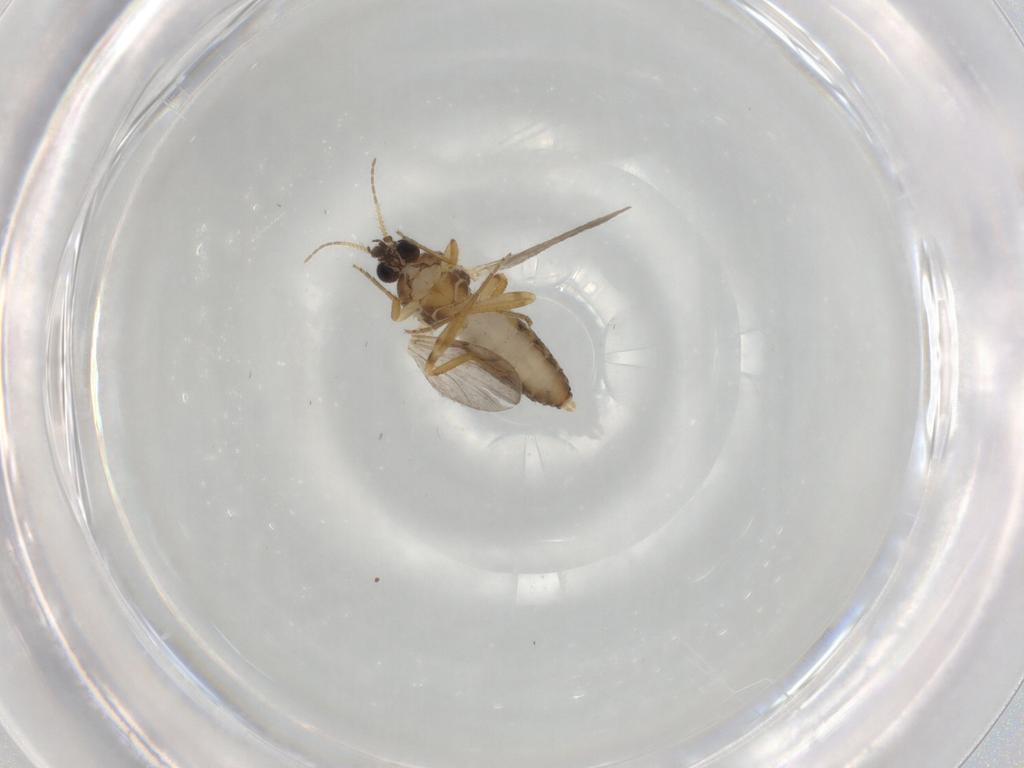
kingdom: Animalia
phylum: Arthropoda
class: Insecta
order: Diptera
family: Ceratopogonidae
